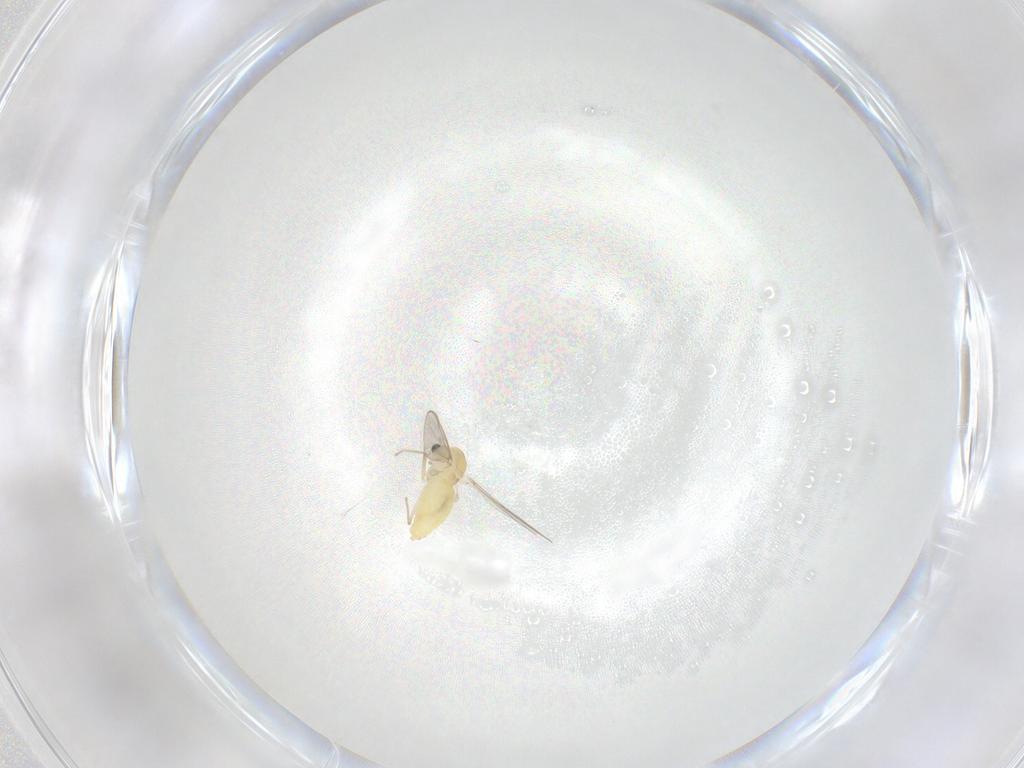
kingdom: Animalia
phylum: Arthropoda
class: Insecta
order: Diptera
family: Chironomidae
